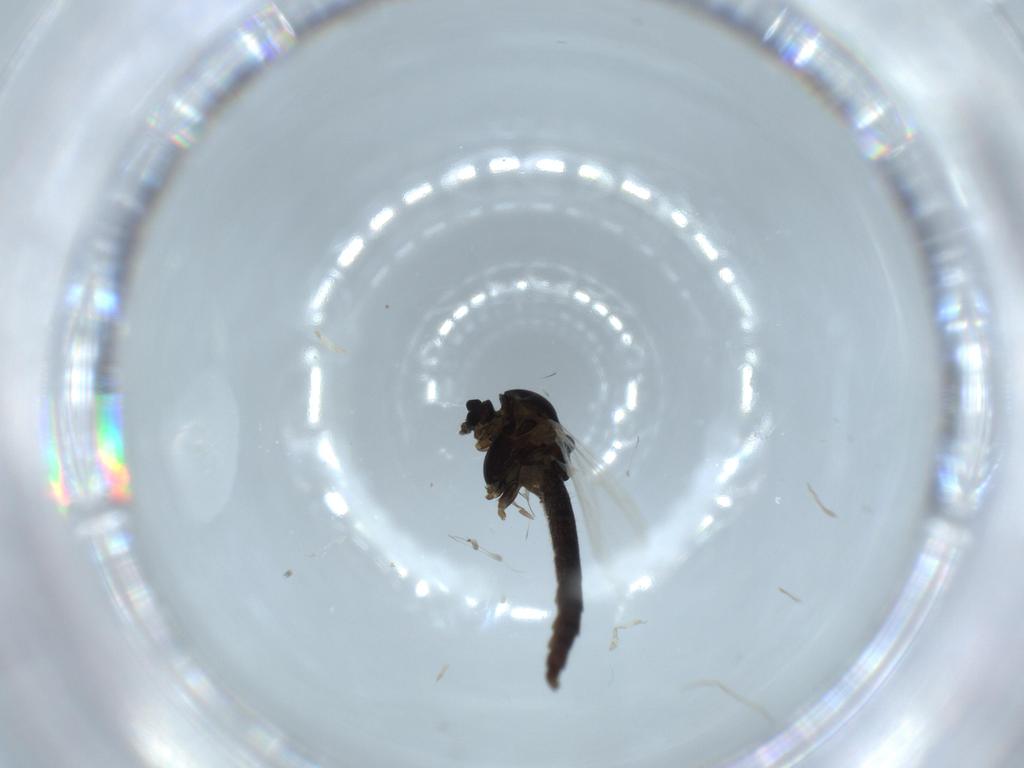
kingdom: Animalia
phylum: Arthropoda
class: Insecta
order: Diptera
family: Chironomidae
